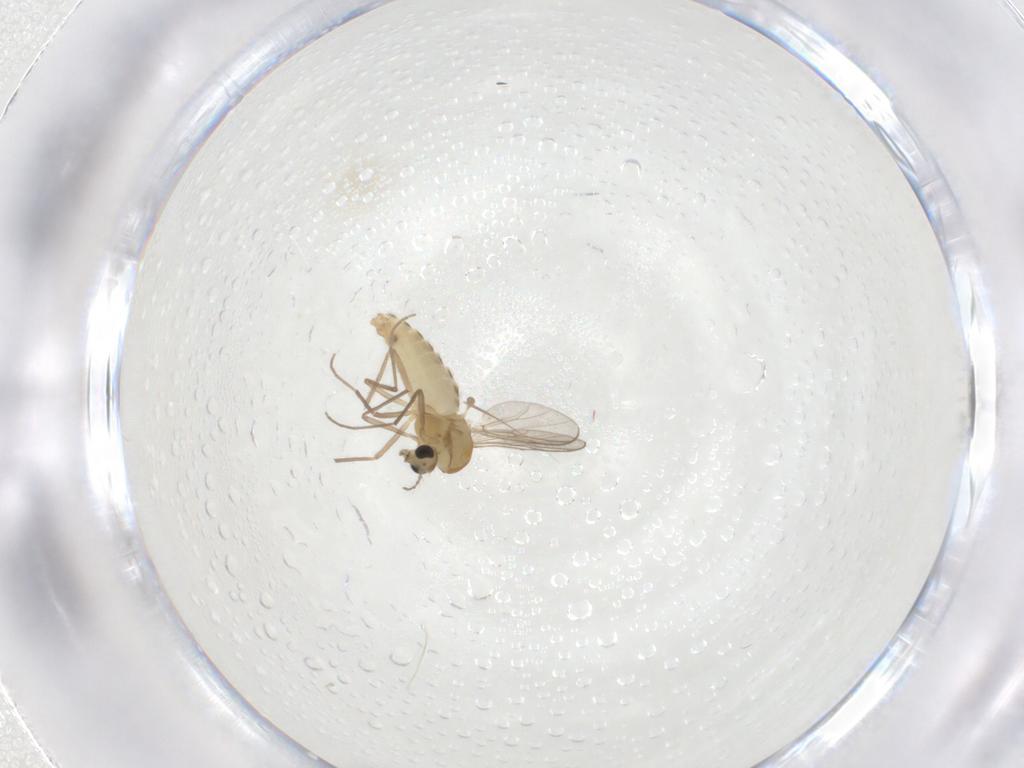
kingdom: Animalia
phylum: Arthropoda
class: Insecta
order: Diptera
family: Chironomidae
